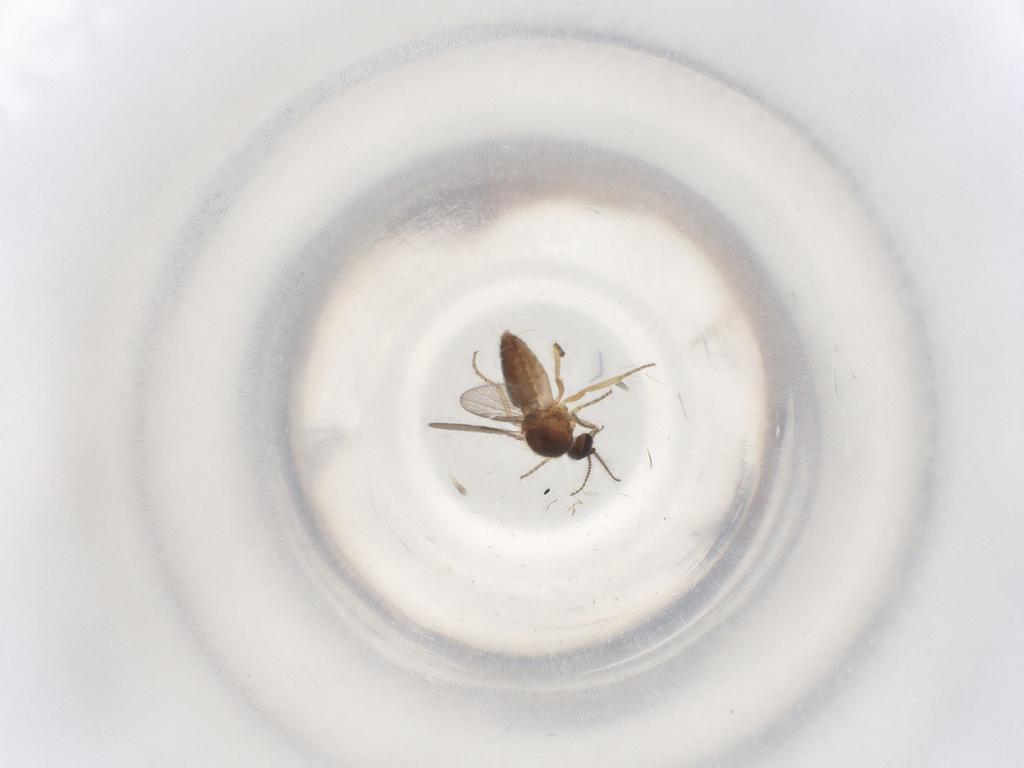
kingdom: Animalia
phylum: Arthropoda
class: Insecta
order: Diptera
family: Ceratopogonidae
